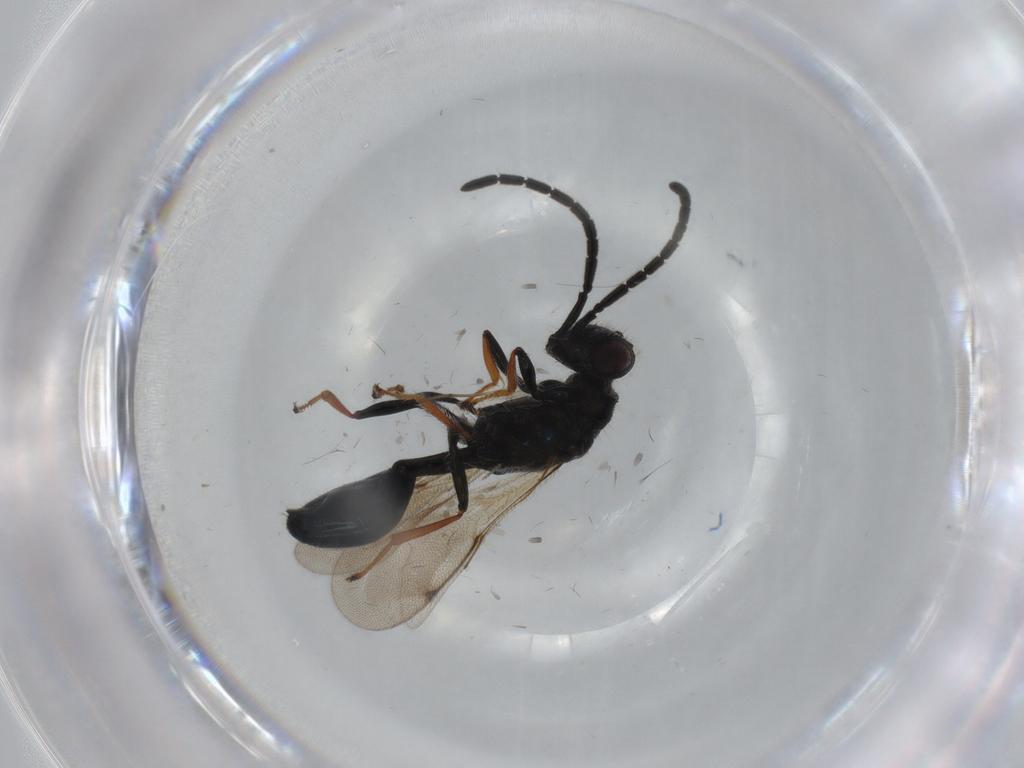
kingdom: Animalia
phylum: Arthropoda
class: Insecta
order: Hymenoptera
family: Scelionidae
